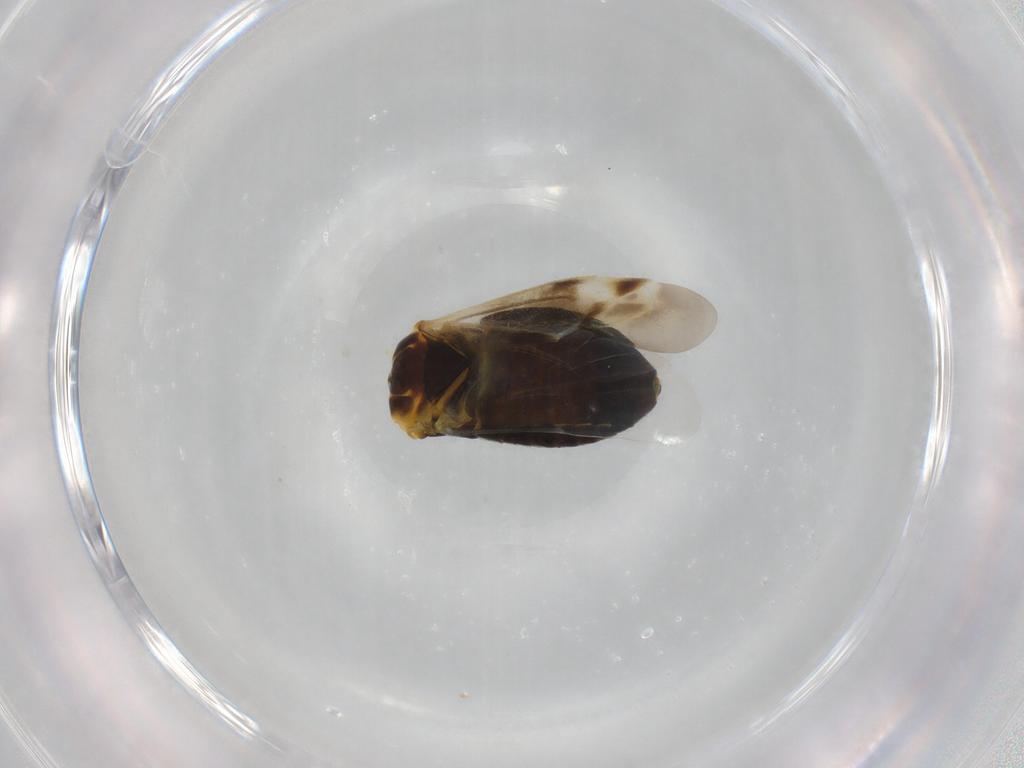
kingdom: Animalia
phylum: Arthropoda
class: Insecta
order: Hemiptera
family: Miridae
